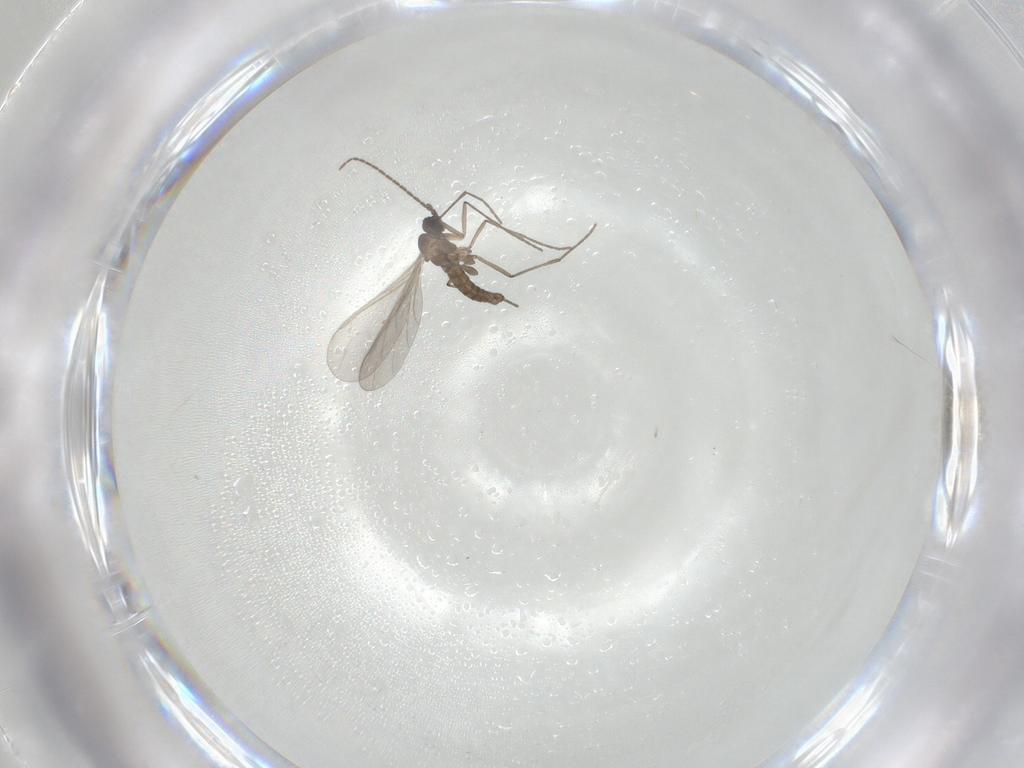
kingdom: Animalia
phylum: Arthropoda
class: Insecta
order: Diptera
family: Sciaridae
